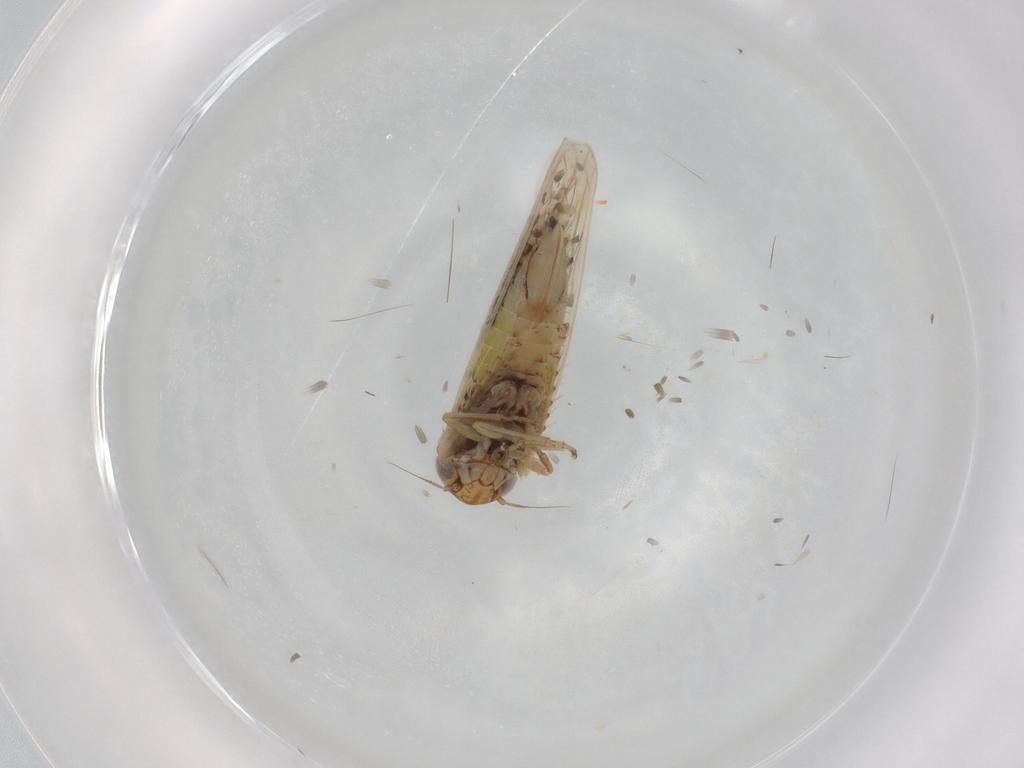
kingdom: Animalia
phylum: Arthropoda
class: Insecta
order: Hemiptera
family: Cicadellidae
